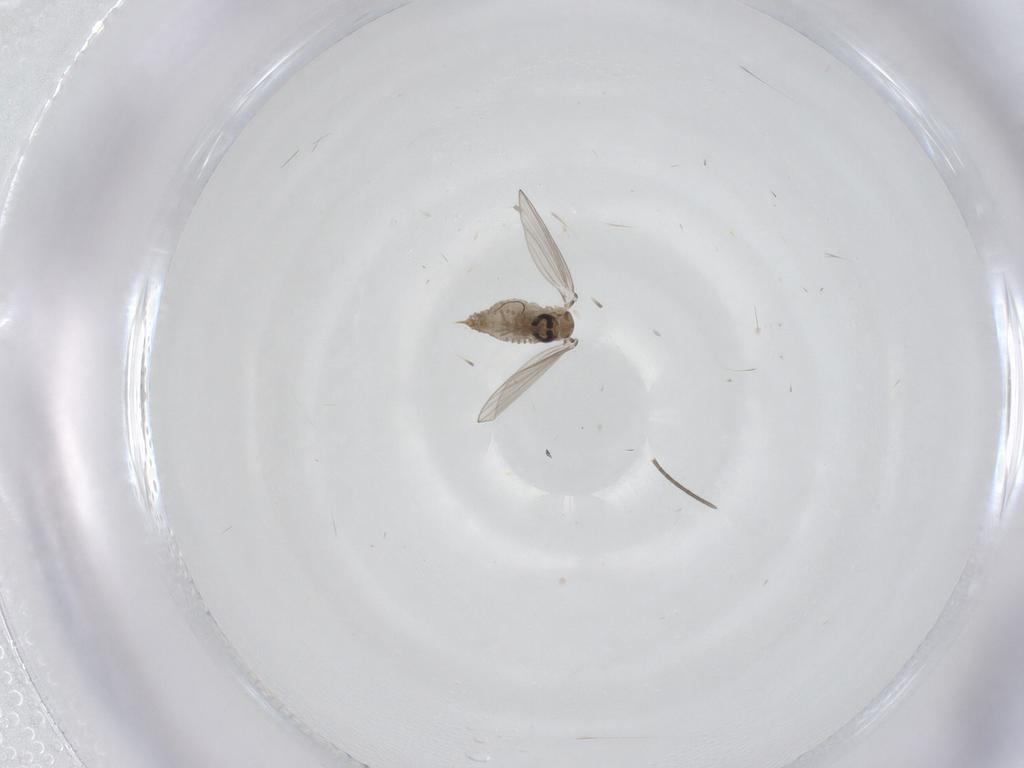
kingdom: Animalia
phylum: Arthropoda
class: Insecta
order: Diptera
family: Psychodidae
